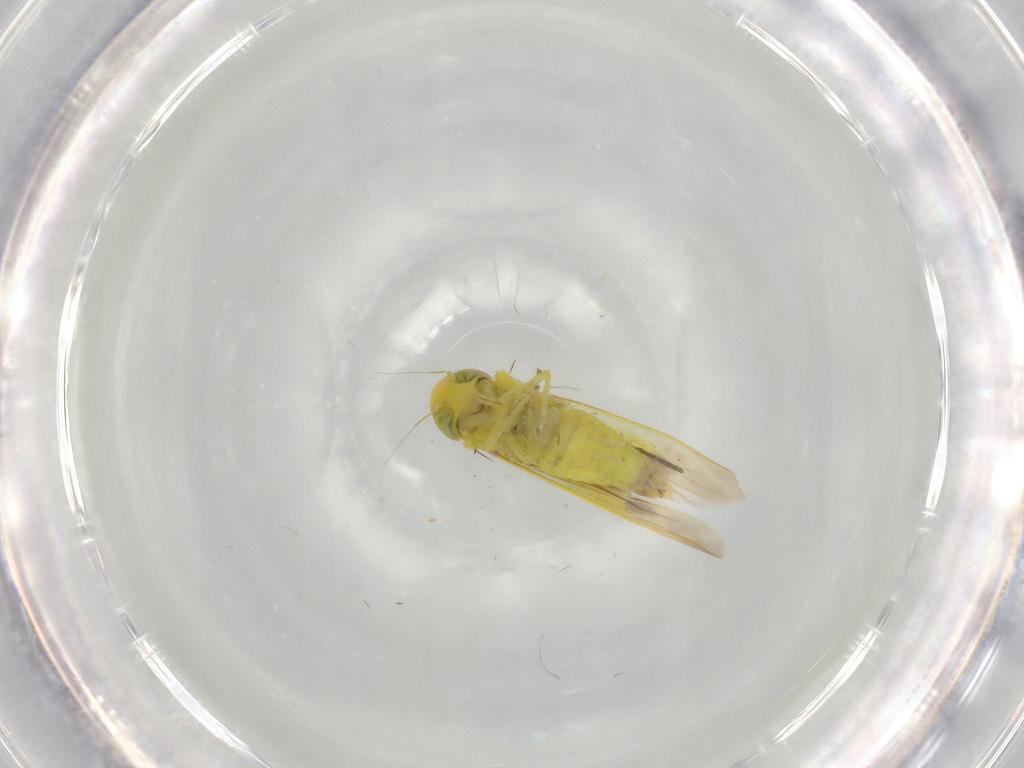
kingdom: Animalia
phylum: Arthropoda
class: Insecta
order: Hemiptera
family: Cicadellidae
